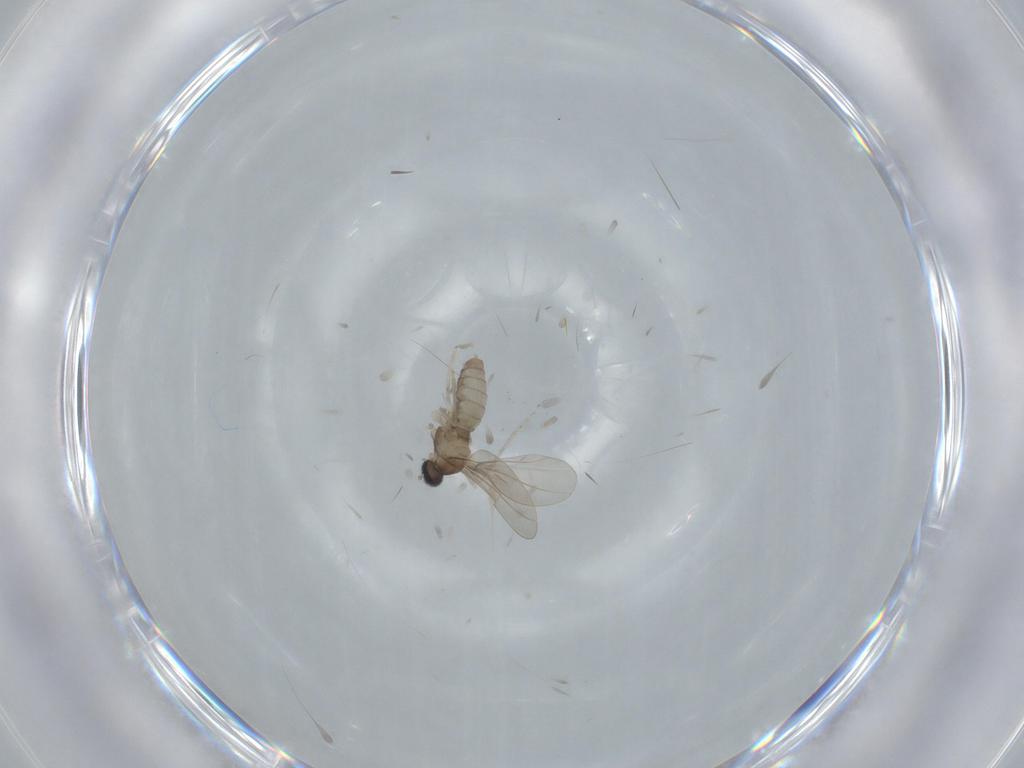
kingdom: Animalia
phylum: Arthropoda
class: Insecta
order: Diptera
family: Cecidomyiidae
